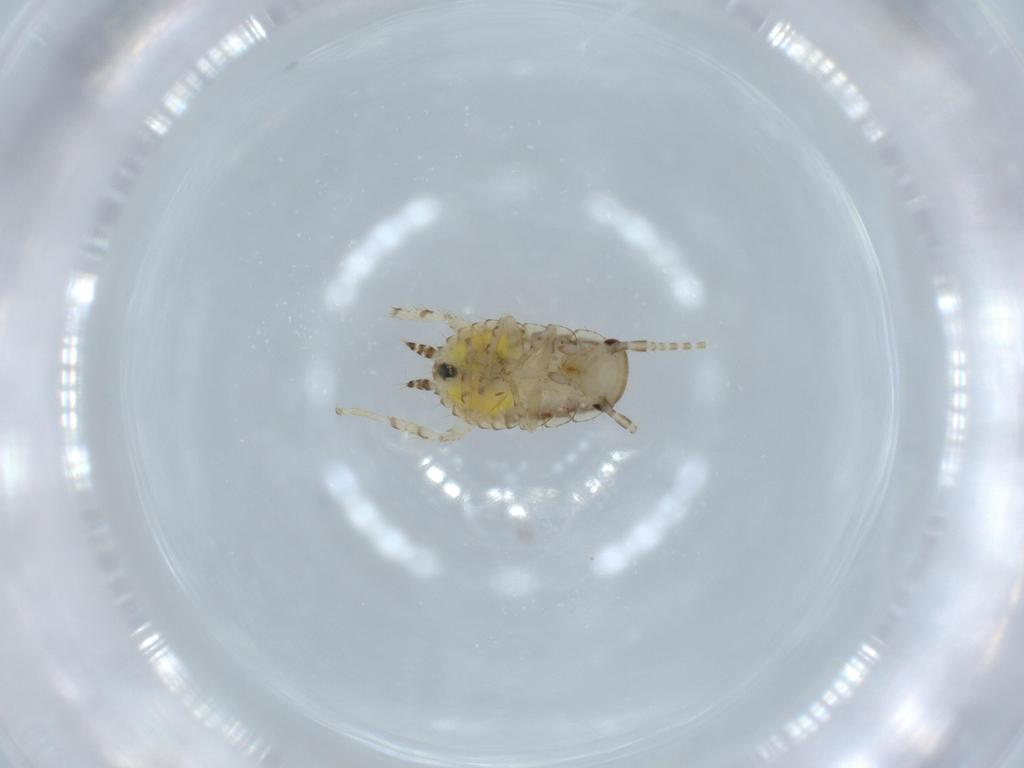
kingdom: Animalia
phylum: Arthropoda
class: Insecta
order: Blattodea
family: Ectobiidae
